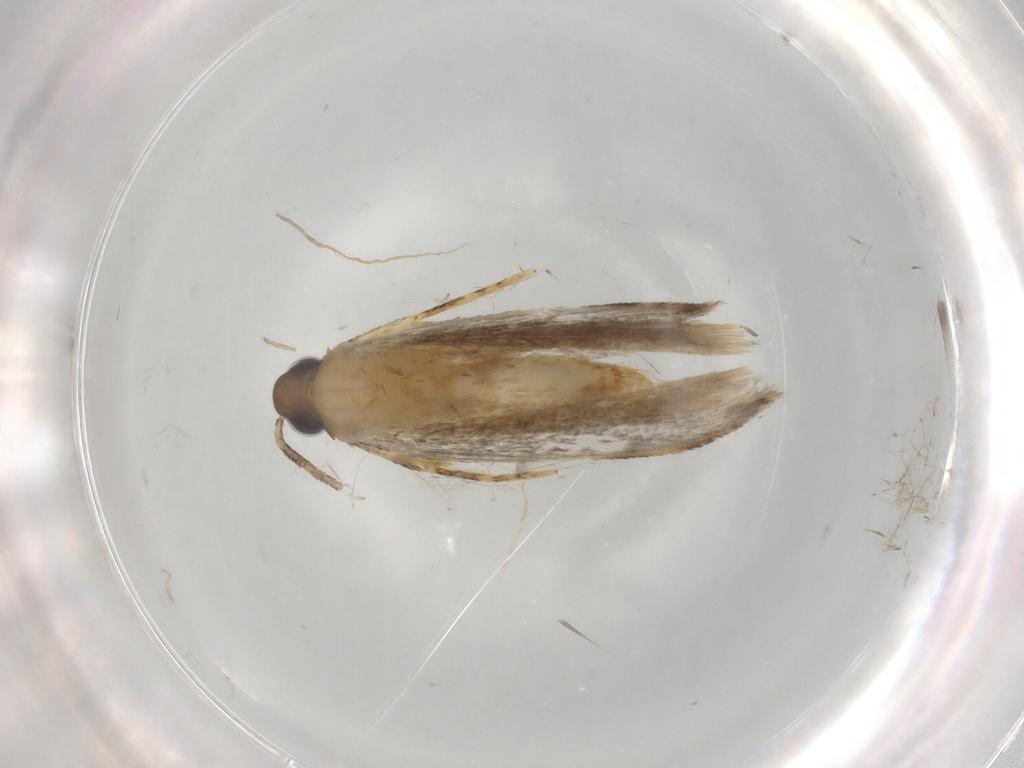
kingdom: Animalia
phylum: Arthropoda
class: Insecta
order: Lepidoptera
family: Autostichidae
